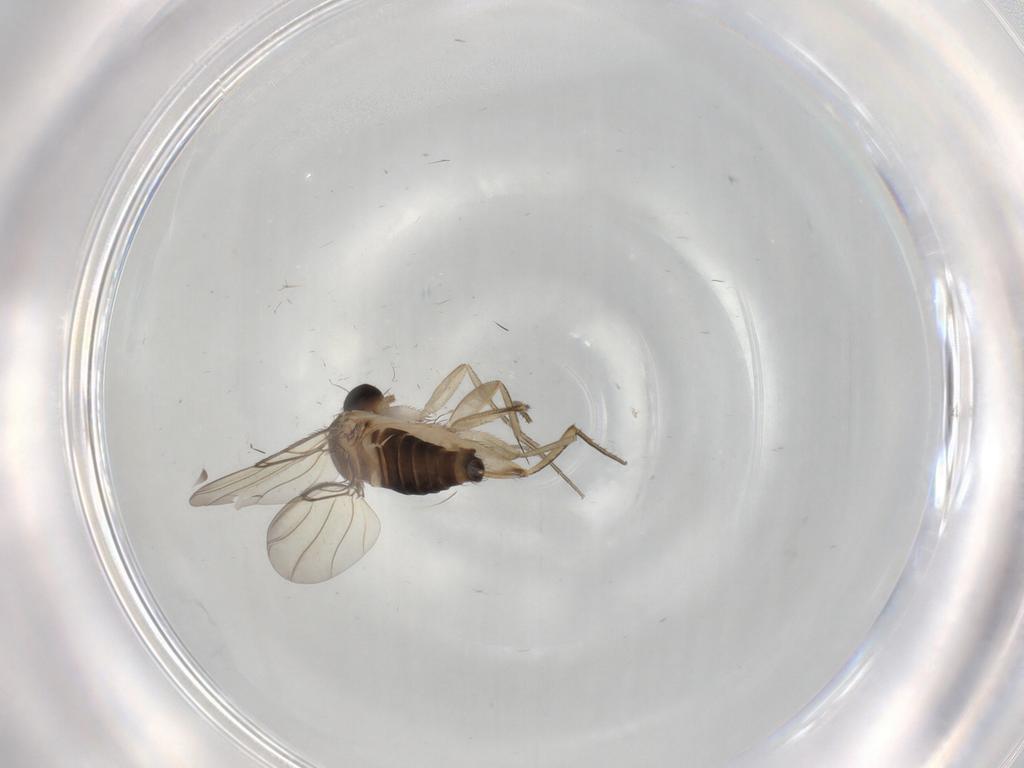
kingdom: Animalia
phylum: Arthropoda
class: Insecta
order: Diptera
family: Phoridae
